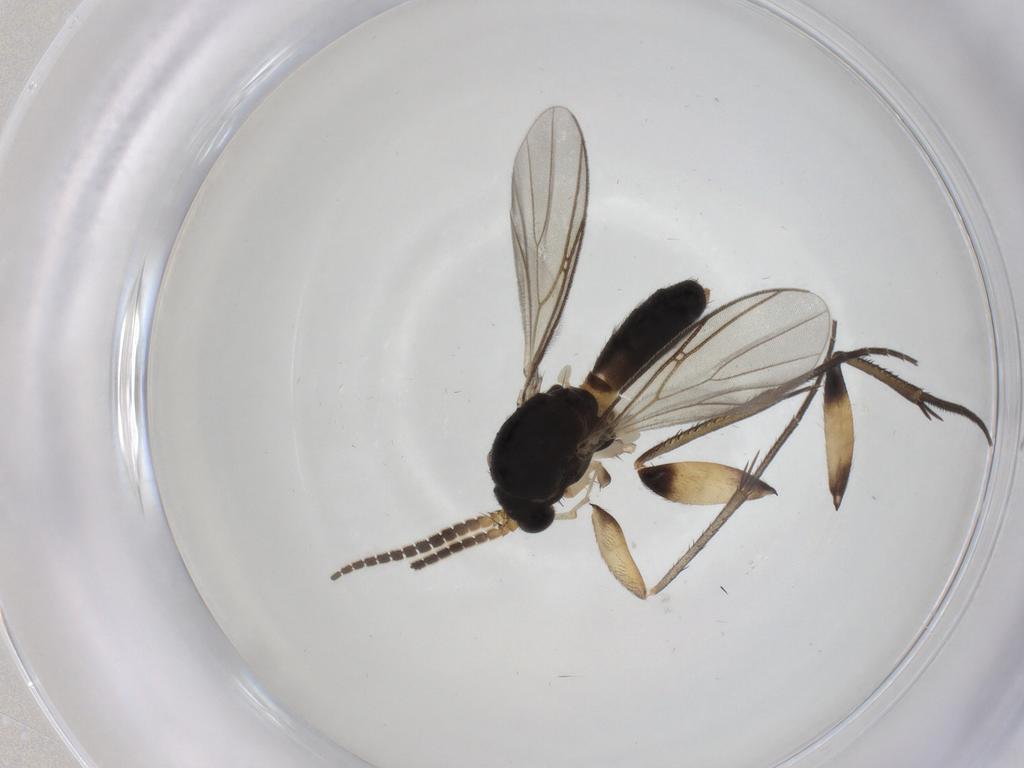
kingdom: Animalia
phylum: Arthropoda
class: Insecta
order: Diptera
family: Mycetophilidae
